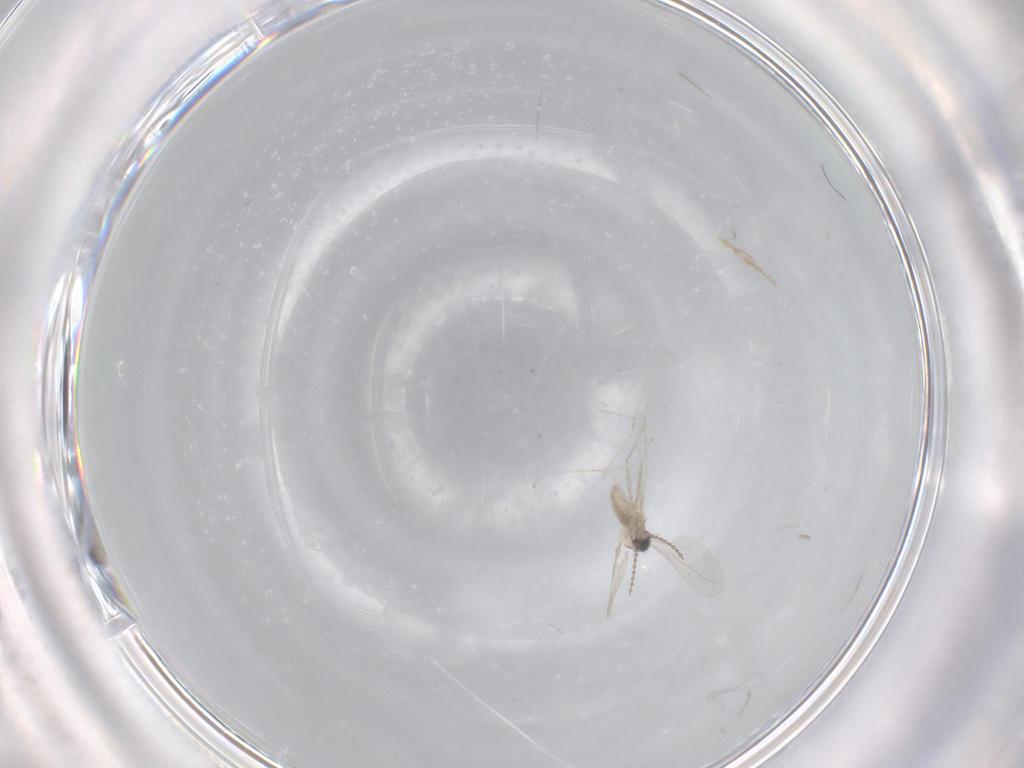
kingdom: Animalia
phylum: Arthropoda
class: Insecta
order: Diptera
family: Cecidomyiidae
